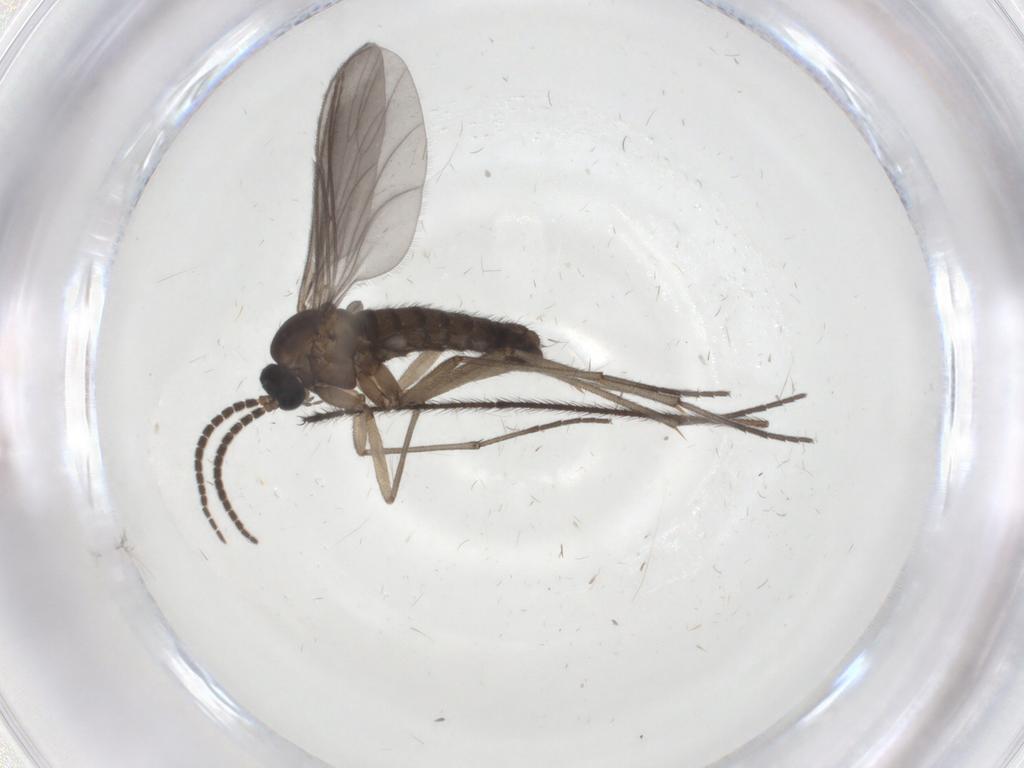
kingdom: Animalia
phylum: Arthropoda
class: Insecta
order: Diptera
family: Sciaridae
